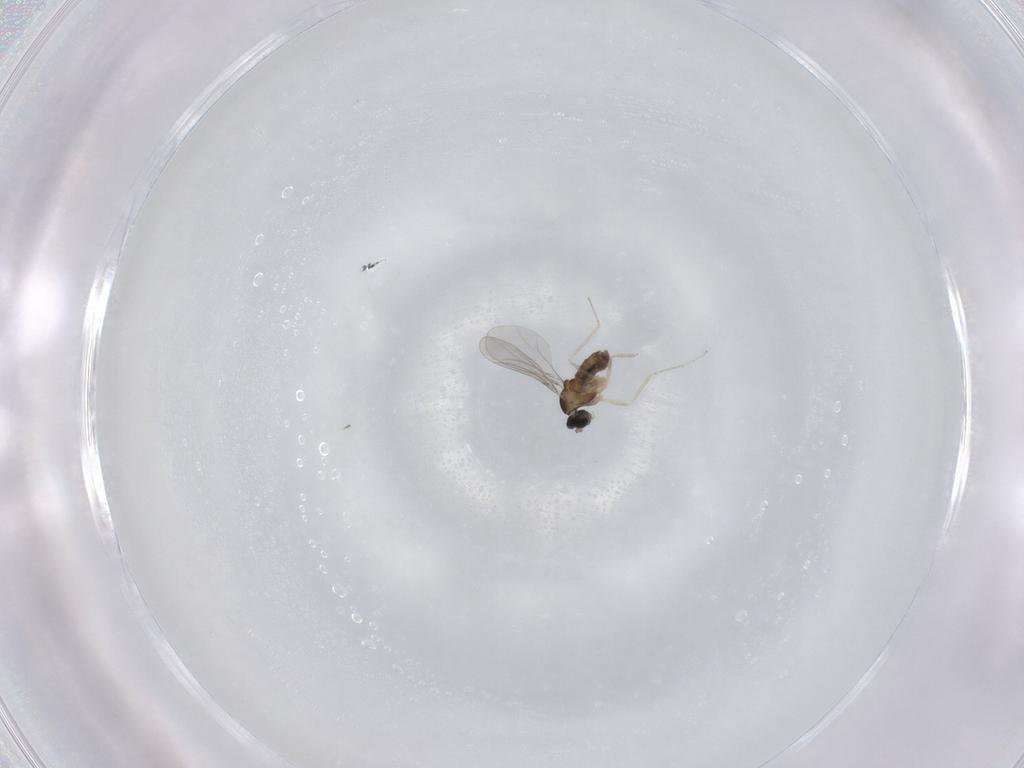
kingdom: Animalia
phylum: Arthropoda
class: Insecta
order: Diptera
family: Cecidomyiidae
